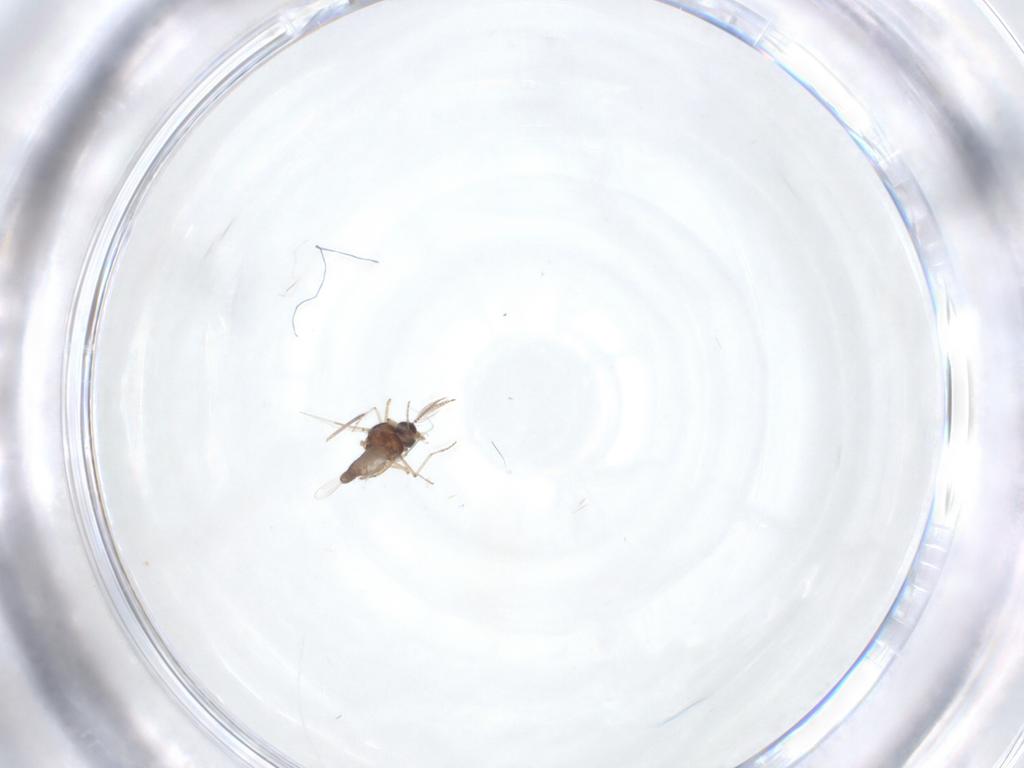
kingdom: Animalia
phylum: Arthropoda
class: Insecta
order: Diptera
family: Ceratopogonidae
